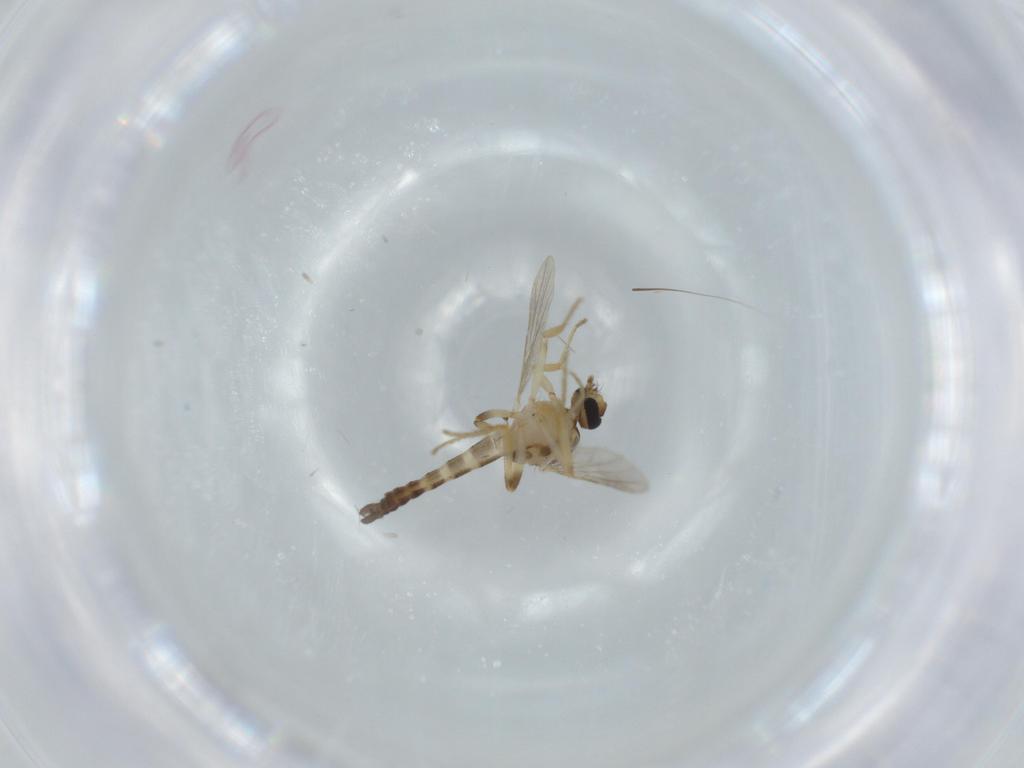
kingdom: Animalia
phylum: Arthropoda
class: Insecta
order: Diptera
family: Ceratopogonidae
